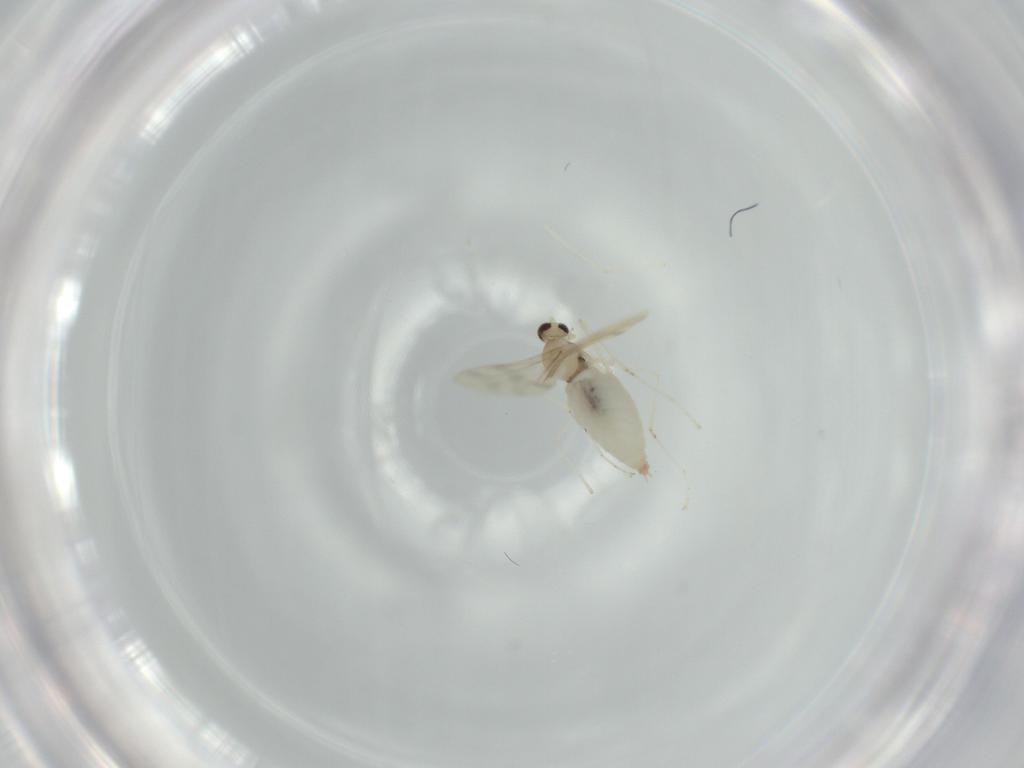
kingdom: Animalia
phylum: Arthropoda
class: Insecta
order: Diptera
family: Cecidomyiidae
